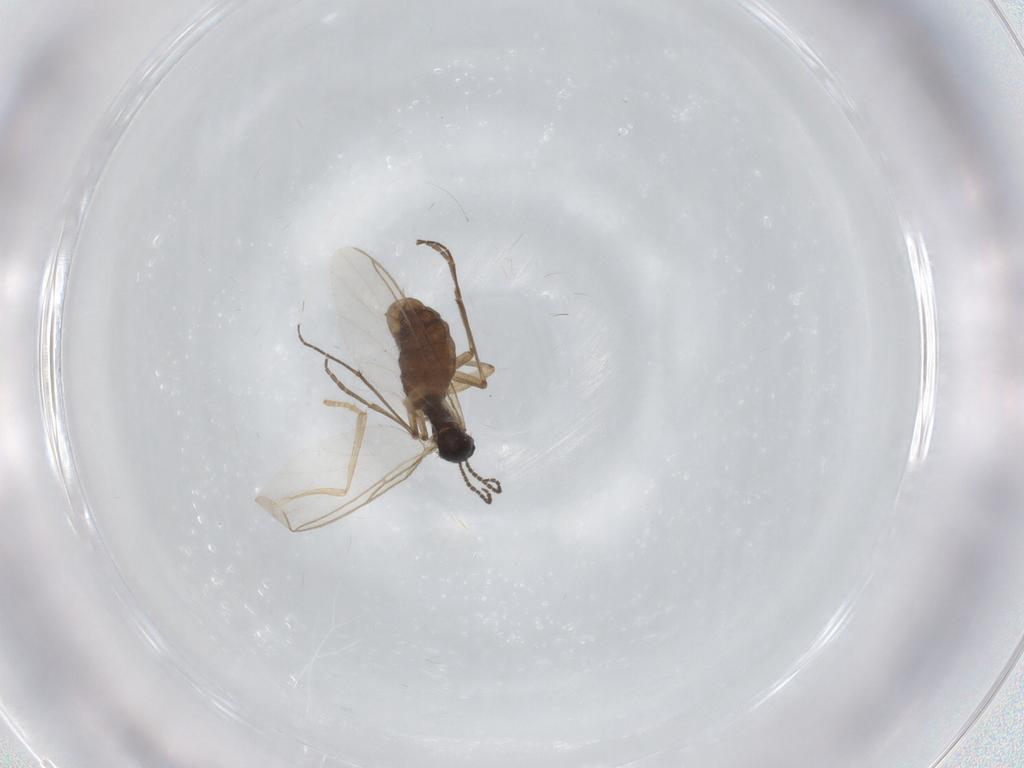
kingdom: Animalia
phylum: Arthropoda
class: Insecta
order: Diptera
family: Sciaridae
